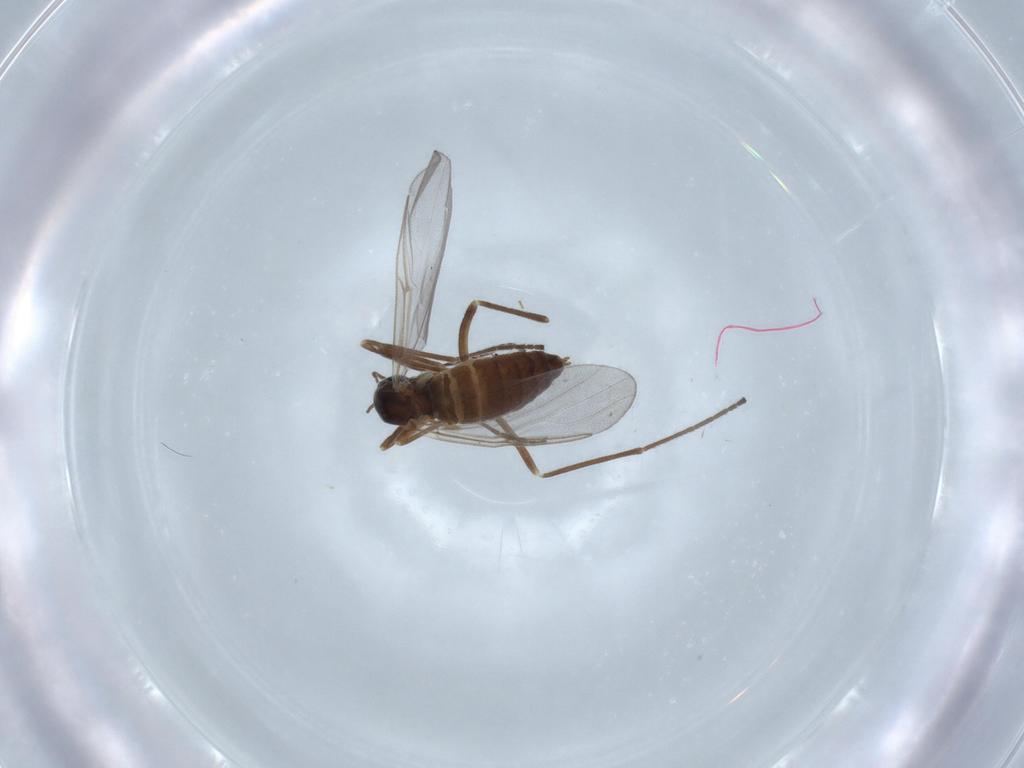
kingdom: Animalia
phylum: Arthropoda
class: Insecta
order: Diptera
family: Cecidomyiidae
